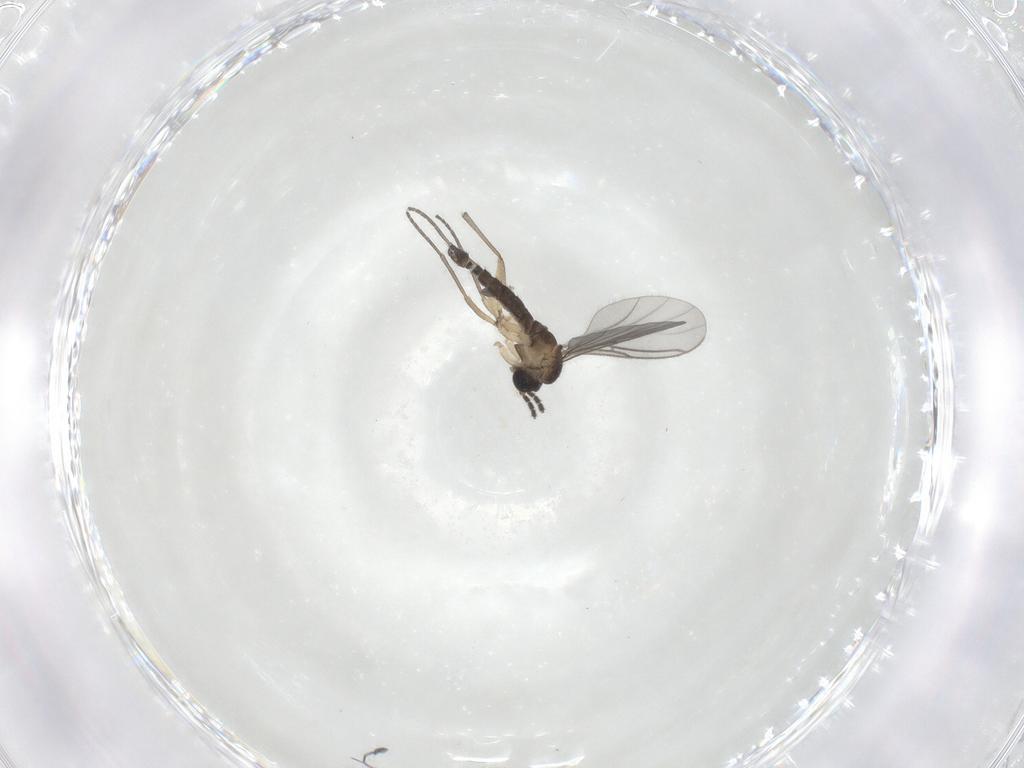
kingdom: Animalia
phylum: Arthropoda
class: Insecta
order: Diptera
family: Sciaridae
